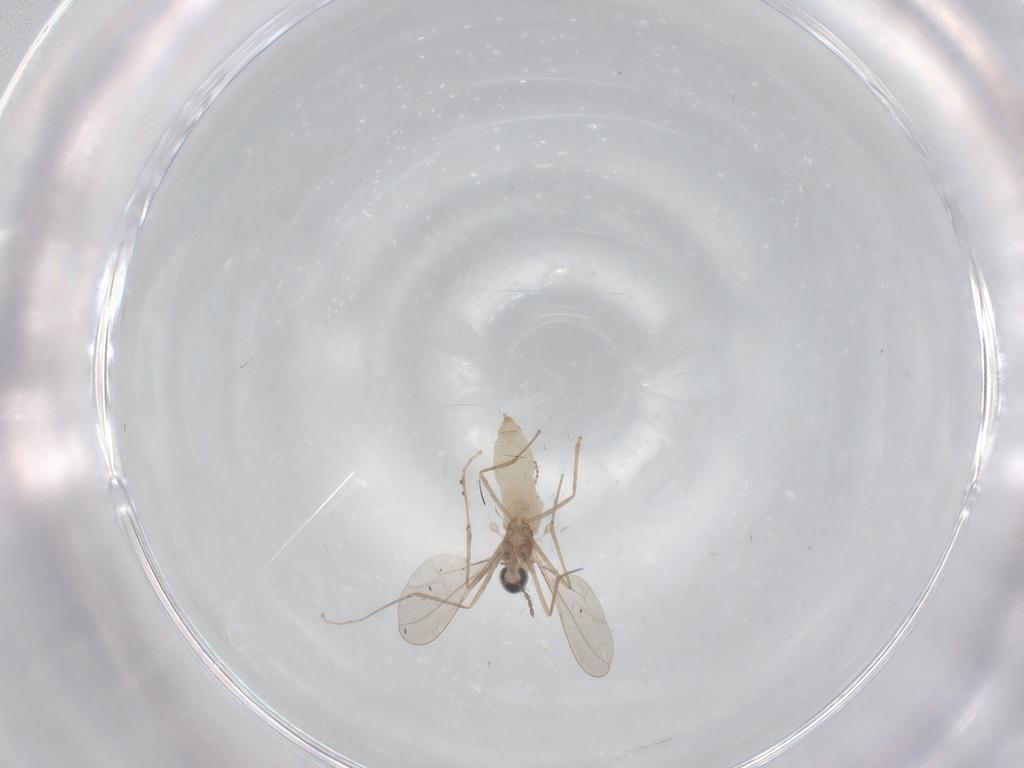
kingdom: Animalia
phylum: Arthropoda
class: Insecta
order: Diptera
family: Cecidomyiidae
